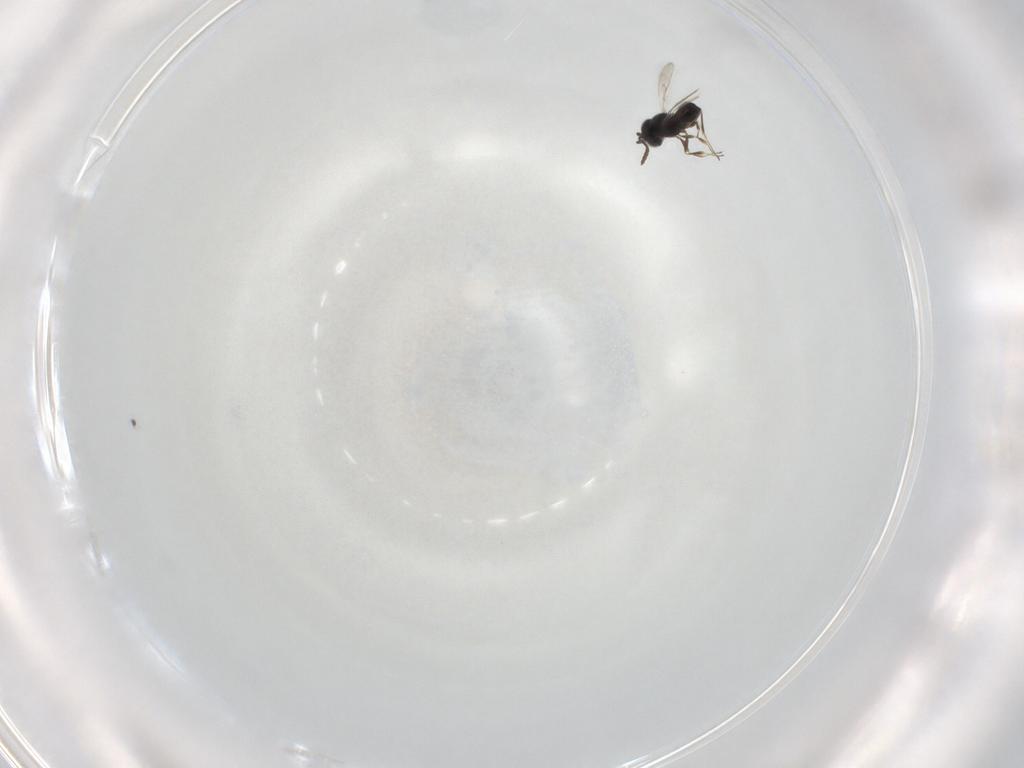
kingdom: Animalia
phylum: Arthropoda
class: Insecta
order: Hymenoptera
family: Scelionidae
